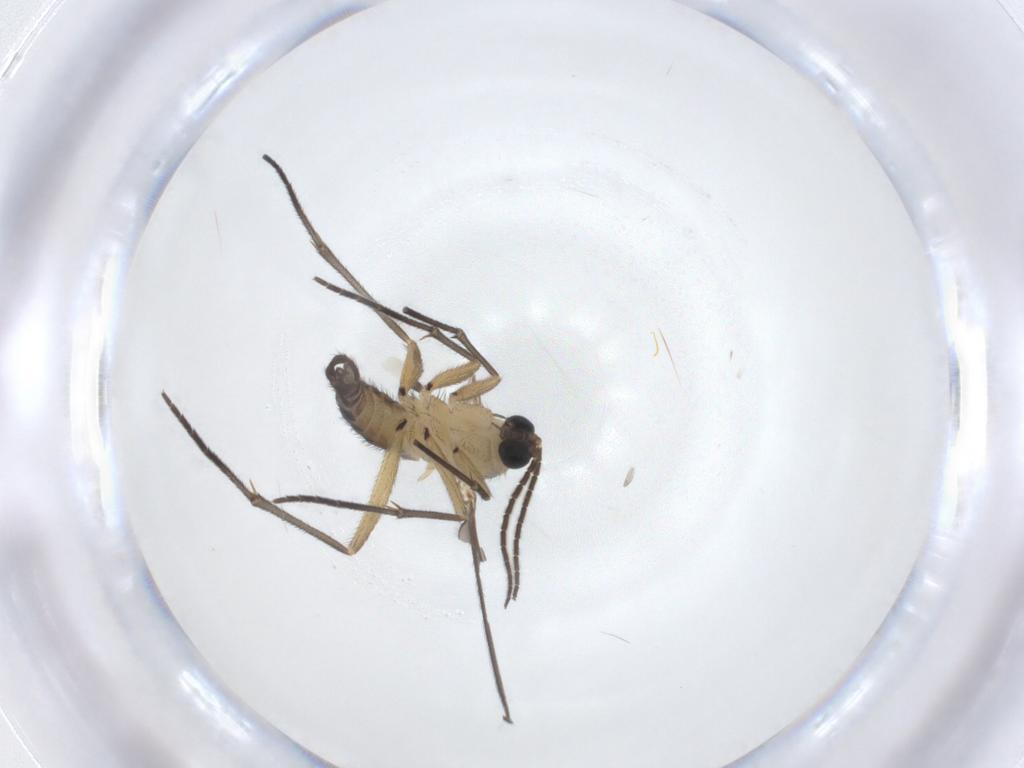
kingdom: Animalia
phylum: Arthropoda
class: Insecta
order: Diptera
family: Sciaridae
